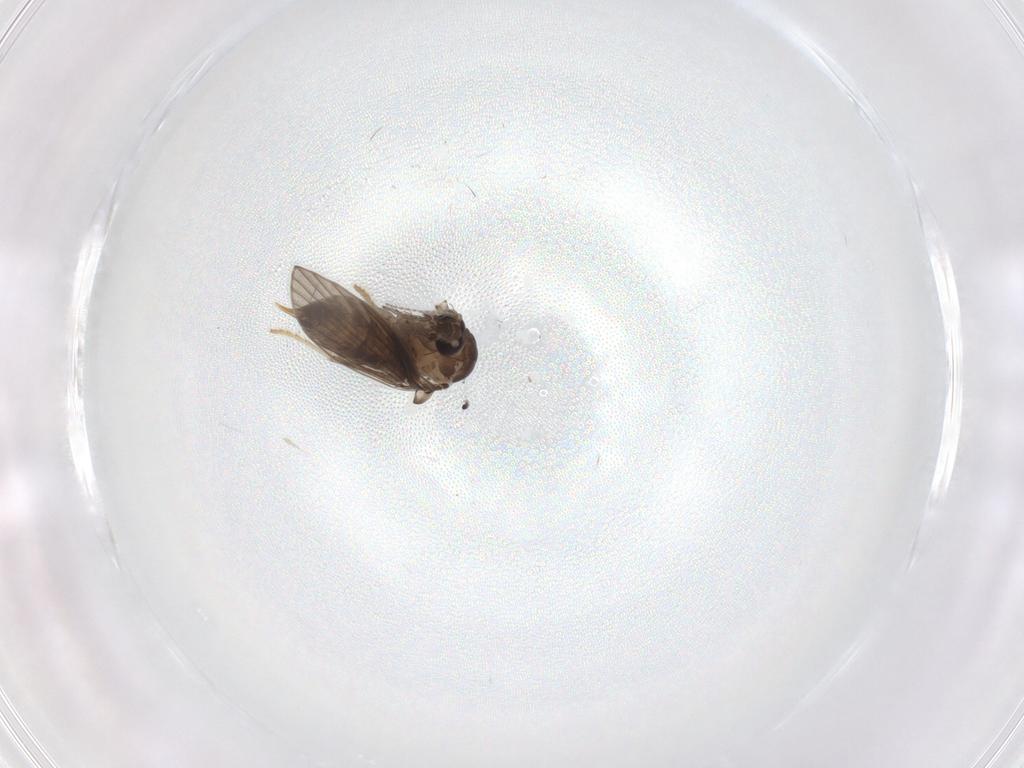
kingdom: Animalia
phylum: Arthropoda
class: Insecta
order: Diptera
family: Psychodidae
